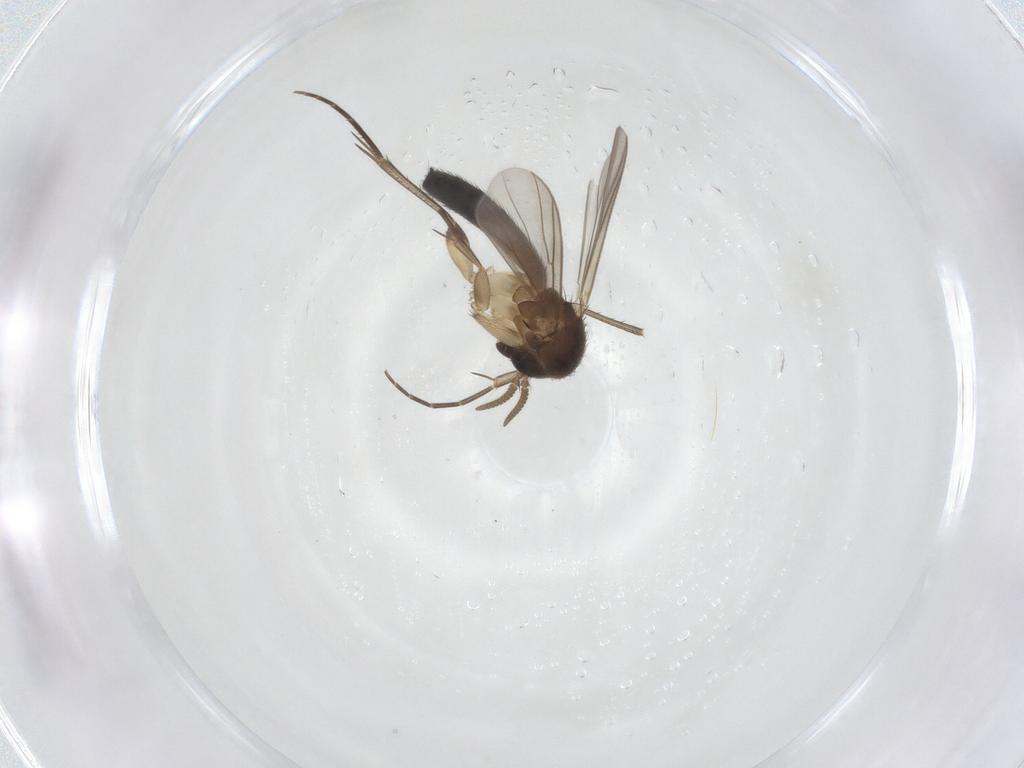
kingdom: Animalia
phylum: Arthropoda
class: Insecta
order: Diptera
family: Mycetophilidae
